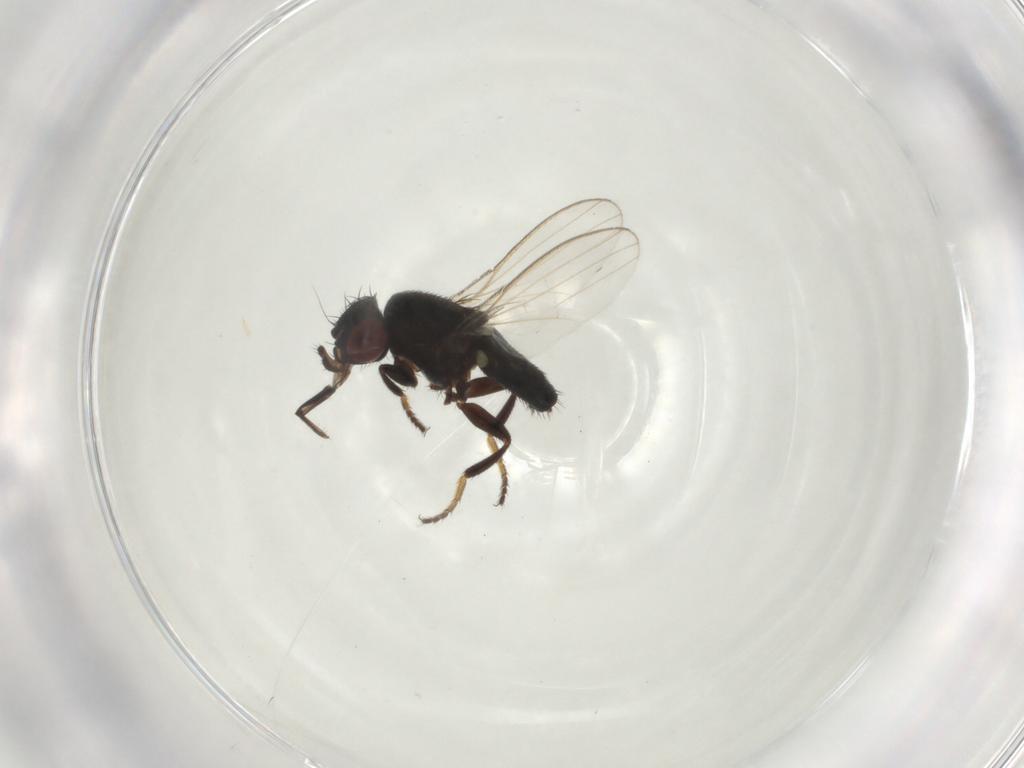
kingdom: Animalia
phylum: Arthropoda
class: Insecta
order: Diptera
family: Milichiidae
